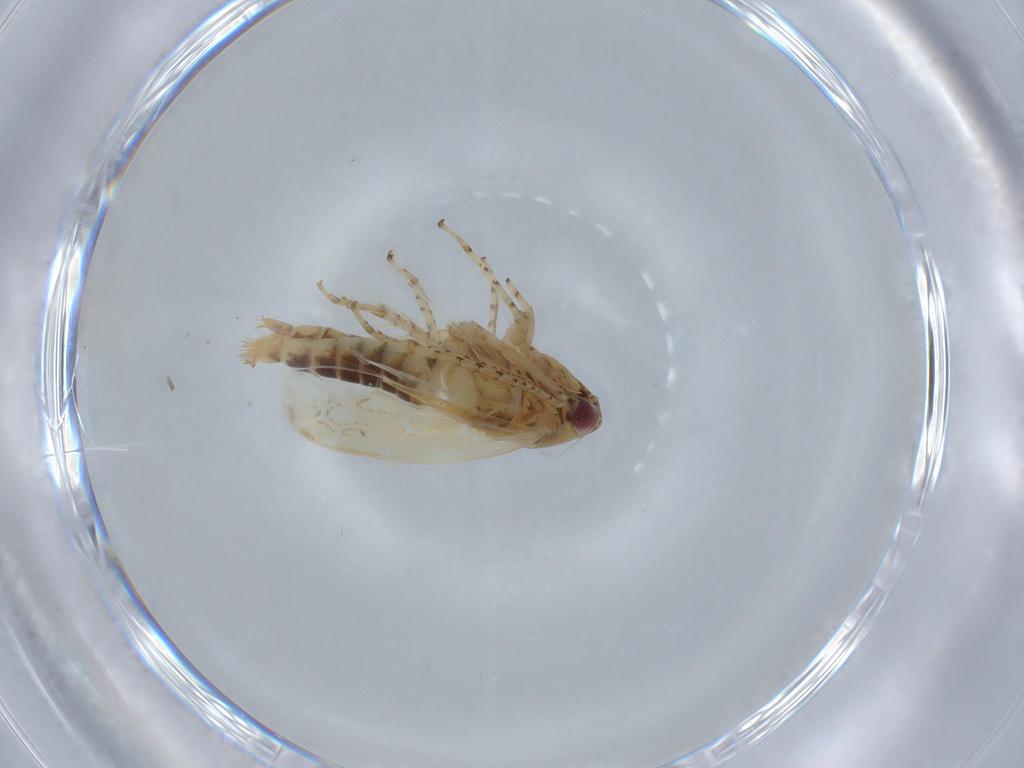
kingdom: Animalia
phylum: Arthropoda
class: Insecta
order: Hemiptera
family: Cicadellidae
